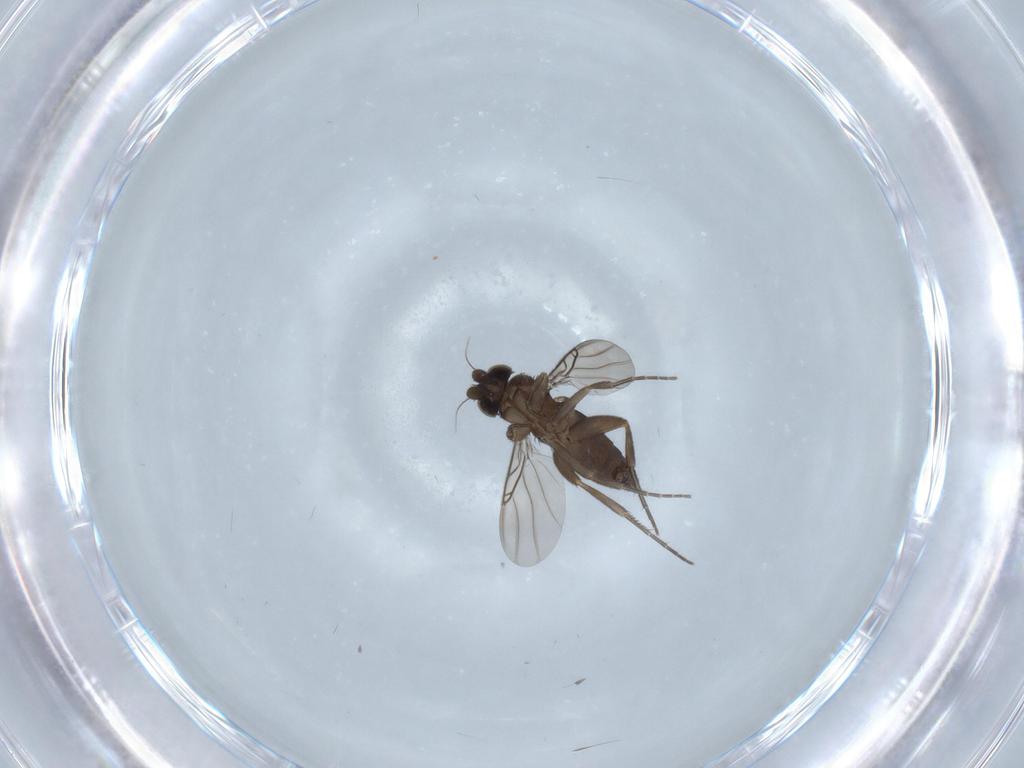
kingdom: Animalia
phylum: Arthropoda
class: Insecta
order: Diptera
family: Phoridae
